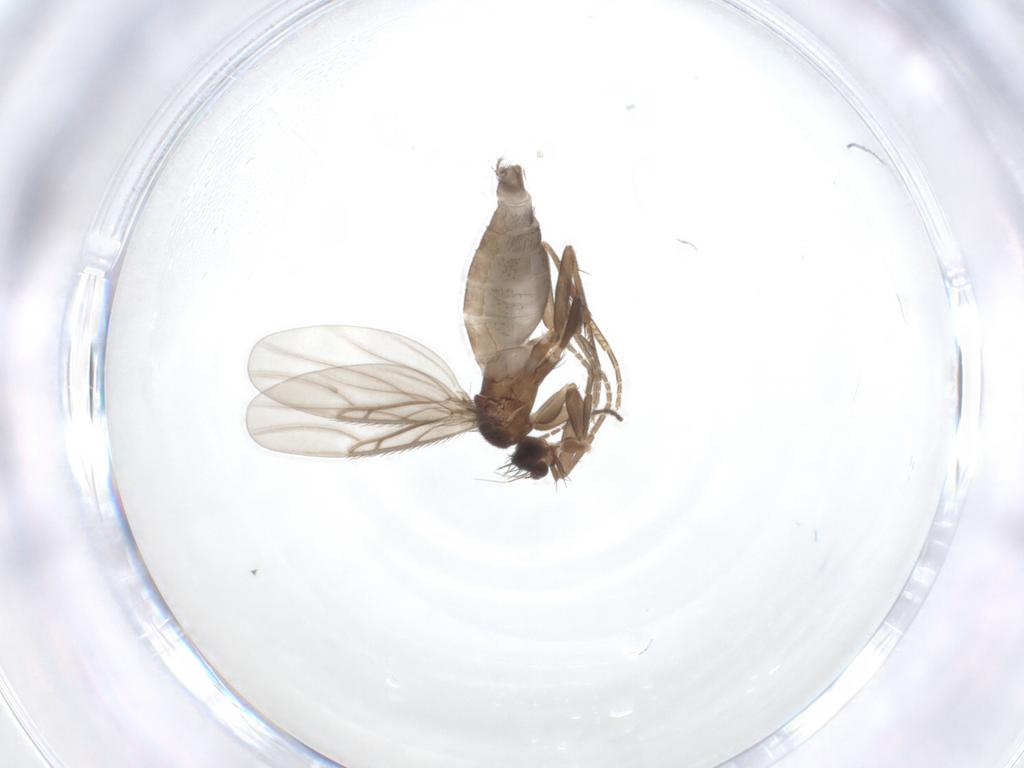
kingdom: Animalia
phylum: Arthropoda
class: Insecta
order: Diptera
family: Phoridae
